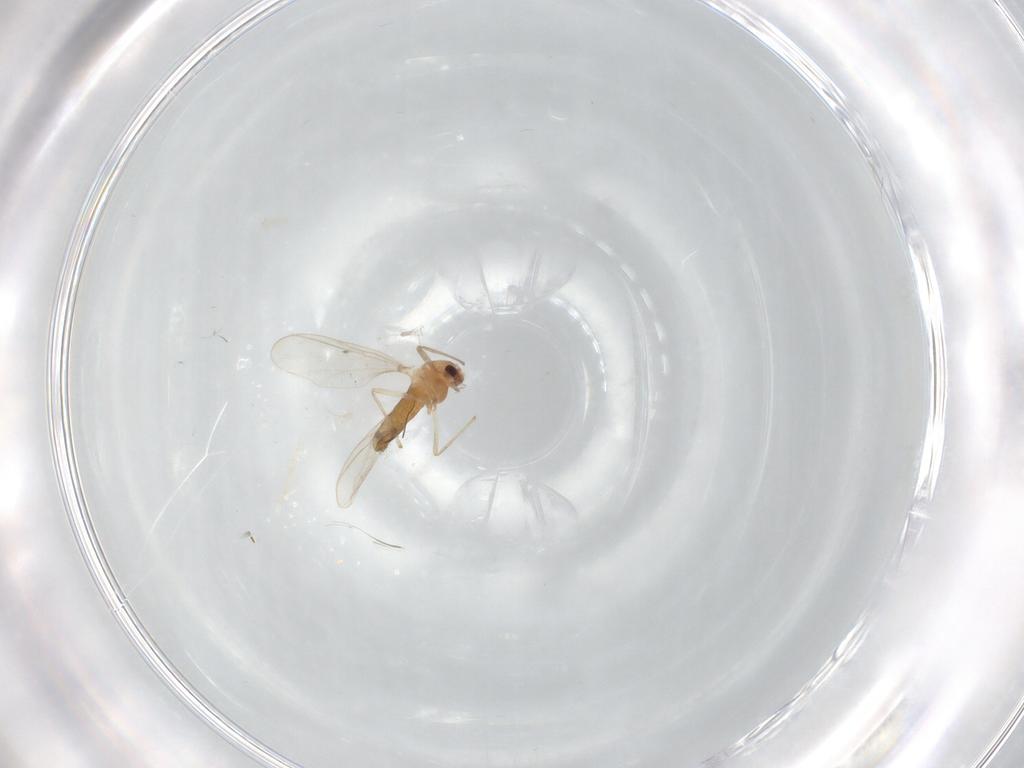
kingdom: Animalia
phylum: Arthropoda
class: Insecta
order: Diptera
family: Chironomidae
